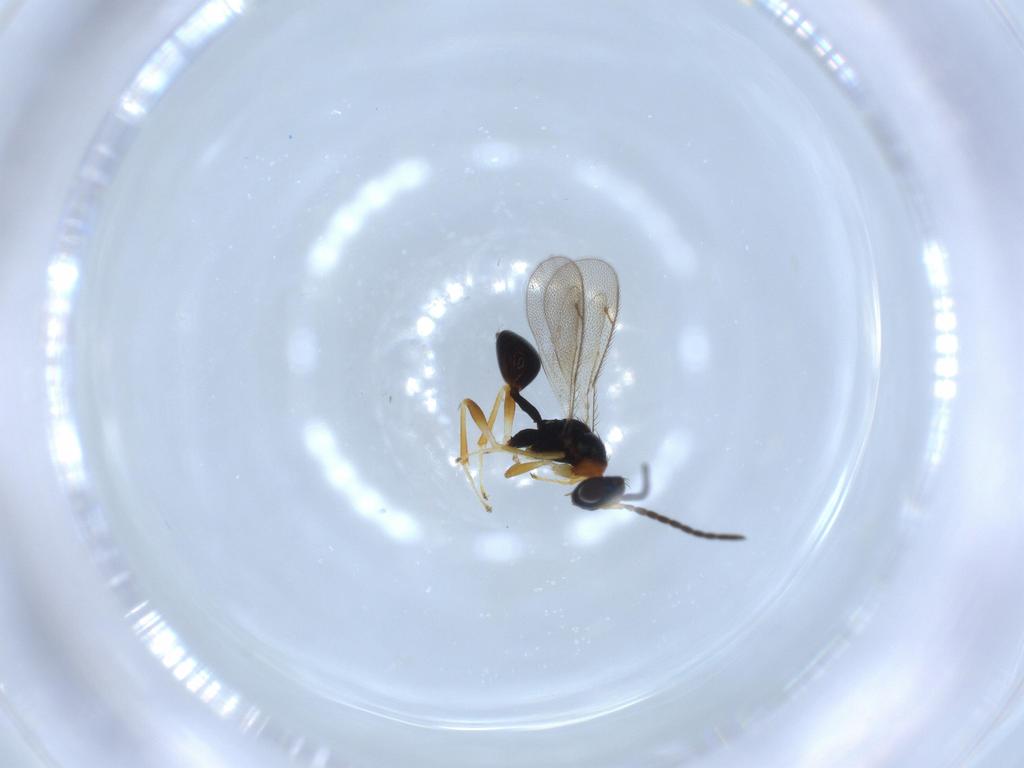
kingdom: Animalia
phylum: Arthropoda
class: Insecta
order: Hymenoptera
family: Diparidae
